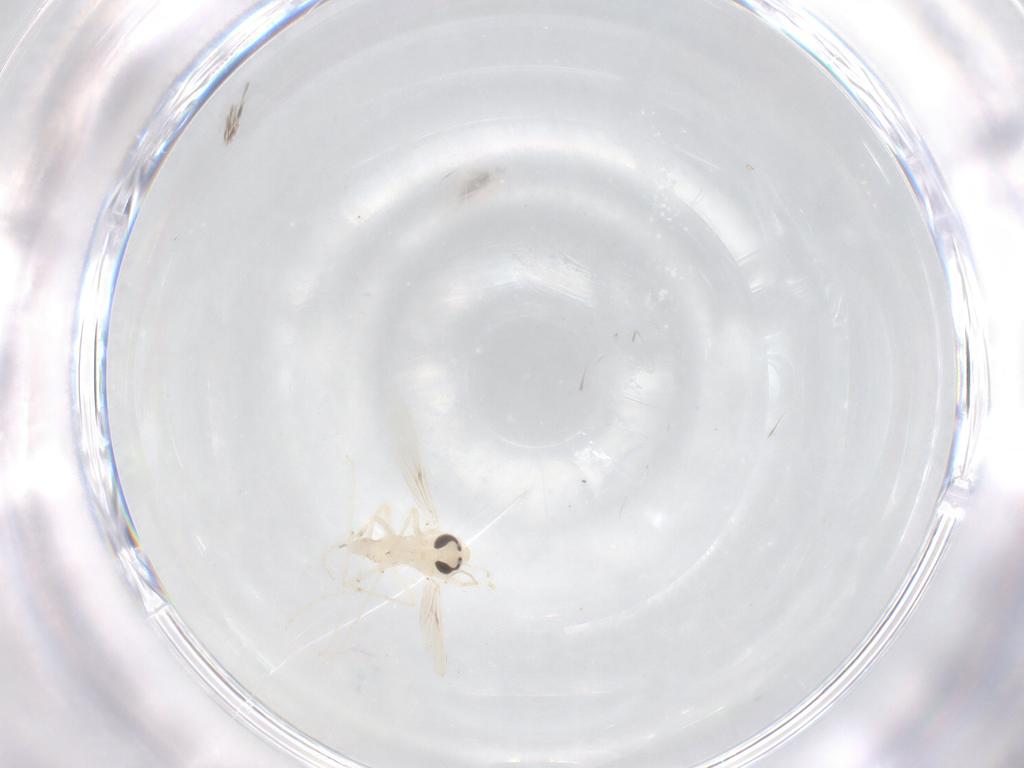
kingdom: Animalia
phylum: Arthropoda
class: Insecta
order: Diptera
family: Chironomidae
